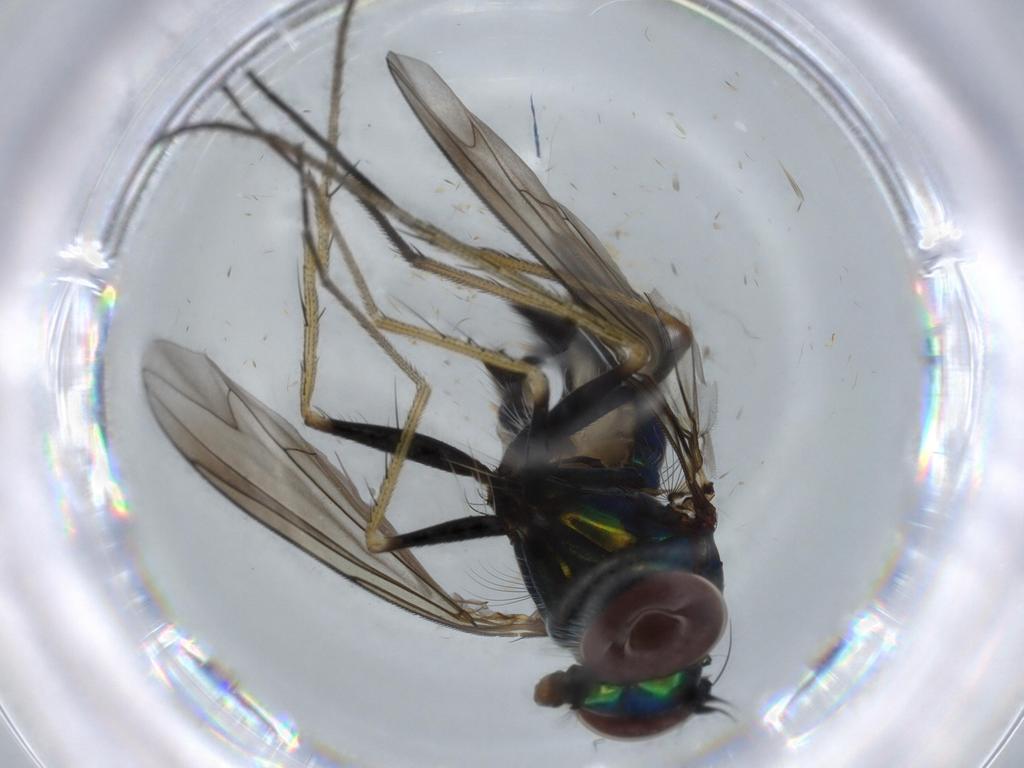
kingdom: Animalia
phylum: Arthropoda
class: Insecta
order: Diptera
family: Dolichopodidae
